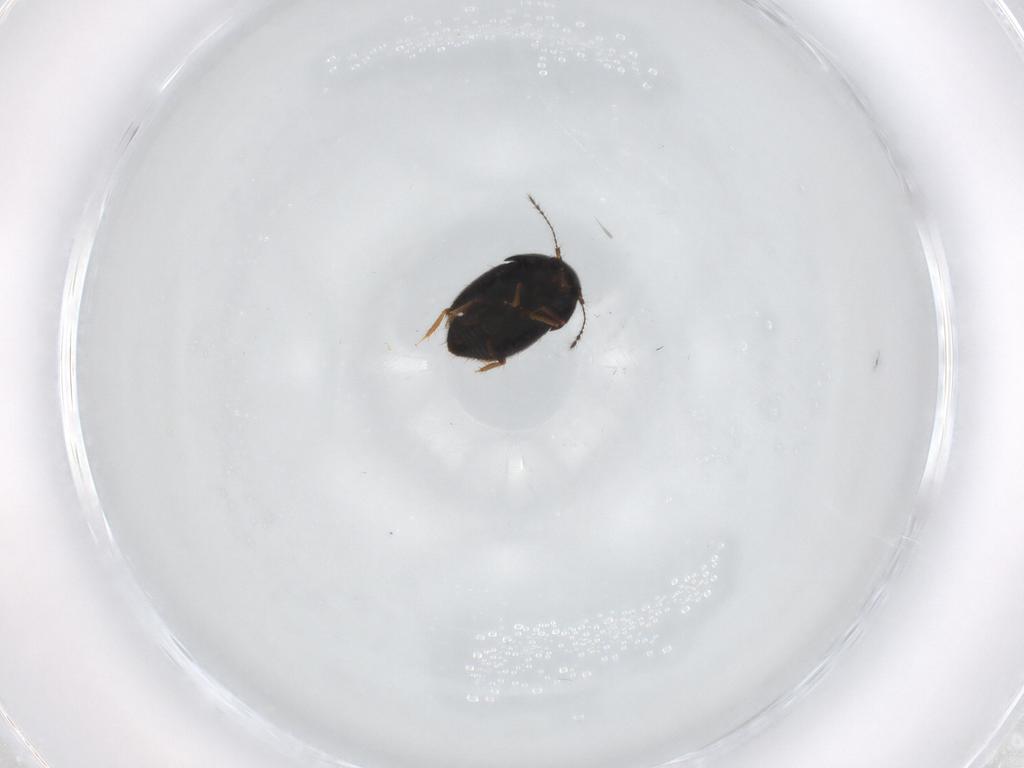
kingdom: Animalia
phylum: Arthropoda
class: Insecta
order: Coleoptera
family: Ptiliidae
